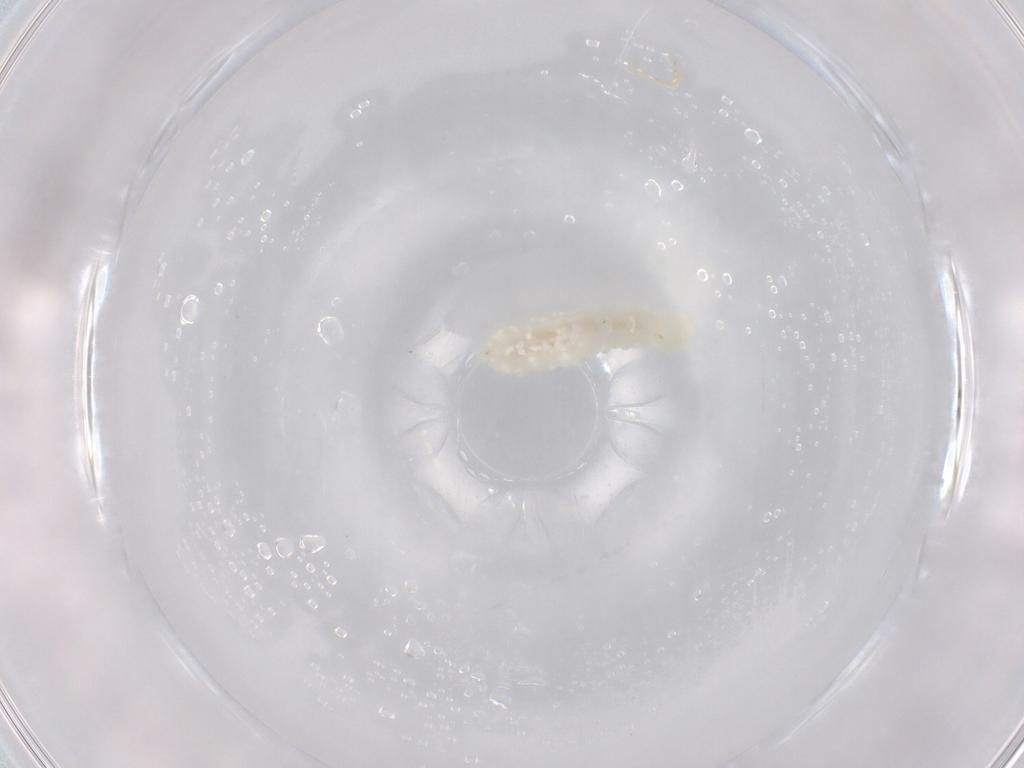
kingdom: Animalia
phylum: Arthropoda
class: Collembola
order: Poduromorpha
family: Onychiuridae
